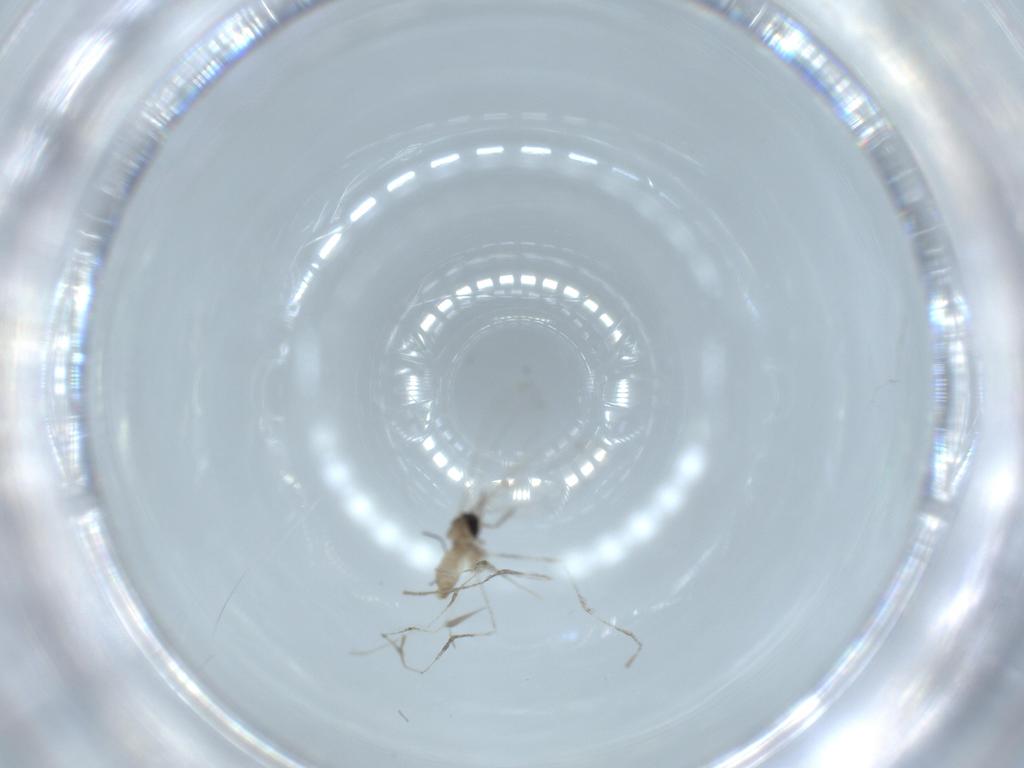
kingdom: Animalia
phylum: Arthropoda
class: Insecta
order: Diptera
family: Cecidomyiidae
